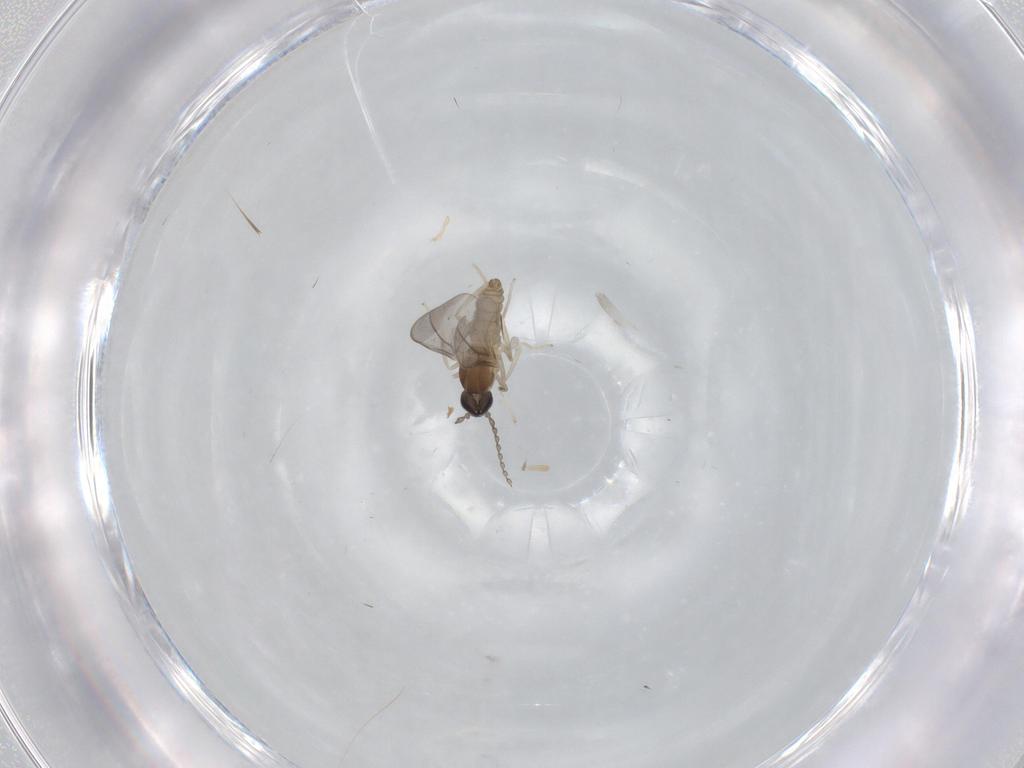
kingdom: Animalia
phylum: Arthropoda
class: Insecta
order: Diptera
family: Cecidomyiidae
